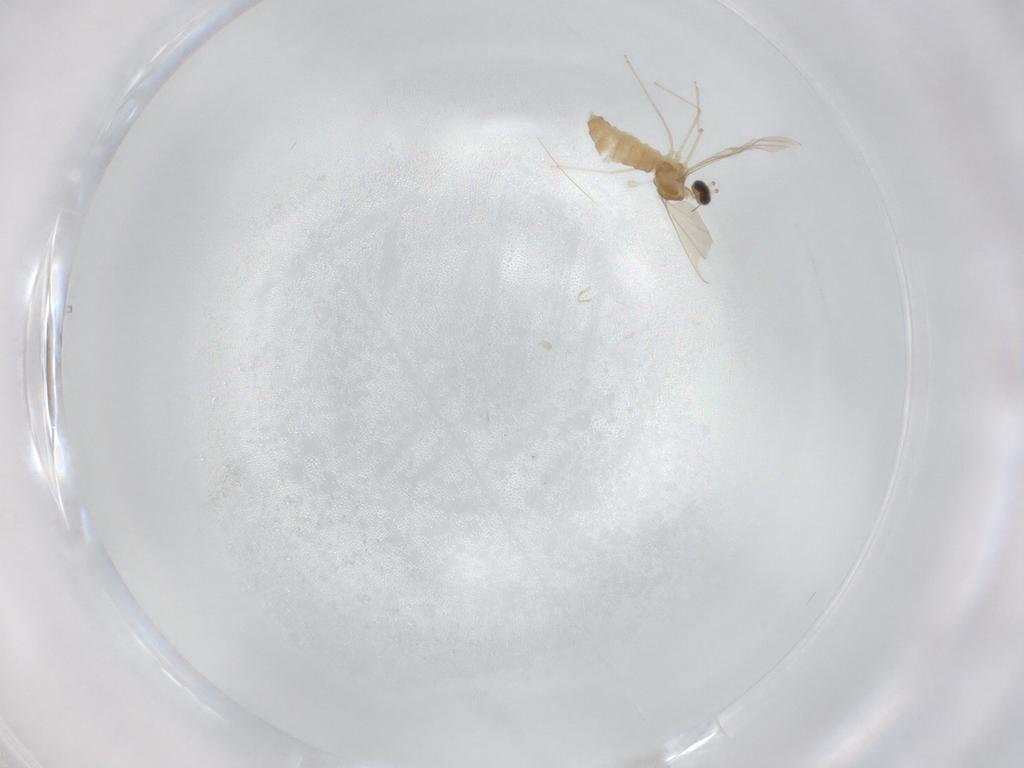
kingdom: Animalia
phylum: Arthropoda
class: Insecta
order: Diptera
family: Cecidomyiidae
